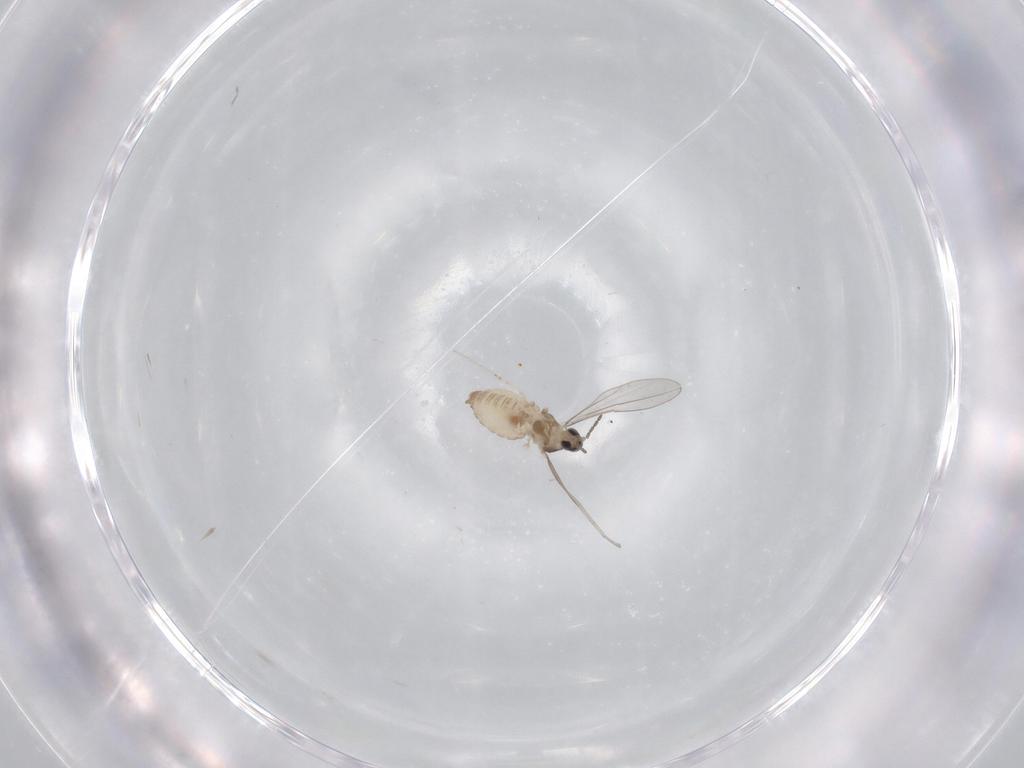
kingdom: Animalia
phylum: Arthropoda
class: Insecta
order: Diptera
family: Cecidomyiidae
